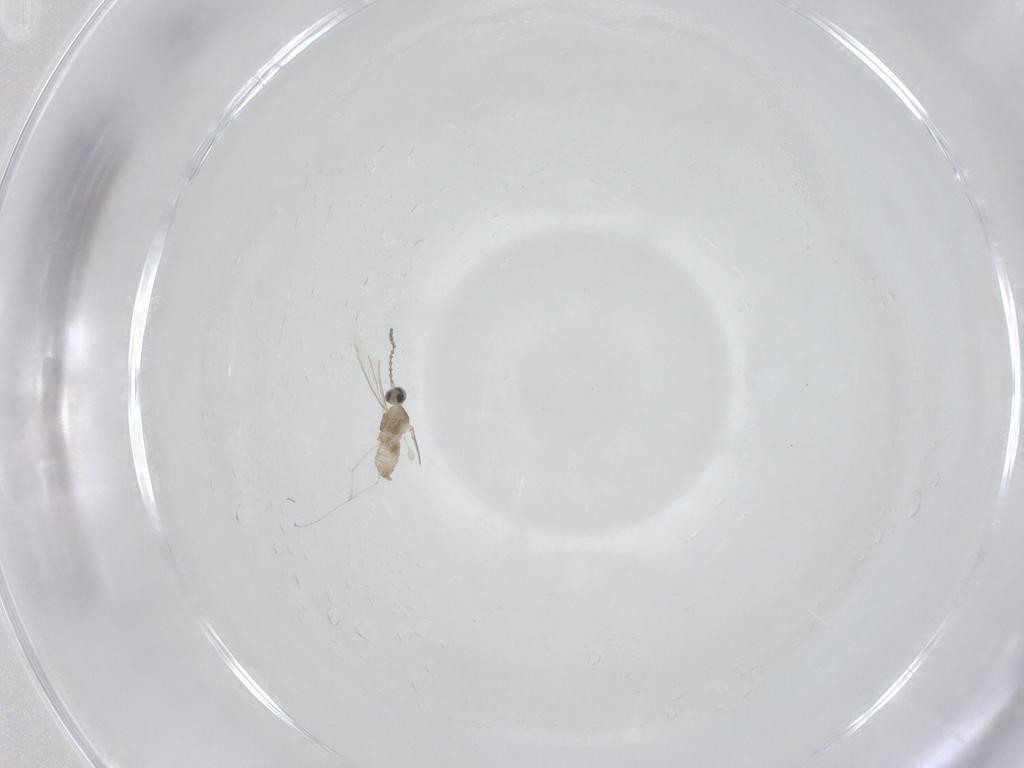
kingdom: Animalia
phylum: Arthropoda
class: Insecta
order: Diptera
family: Cecidomyiidae
